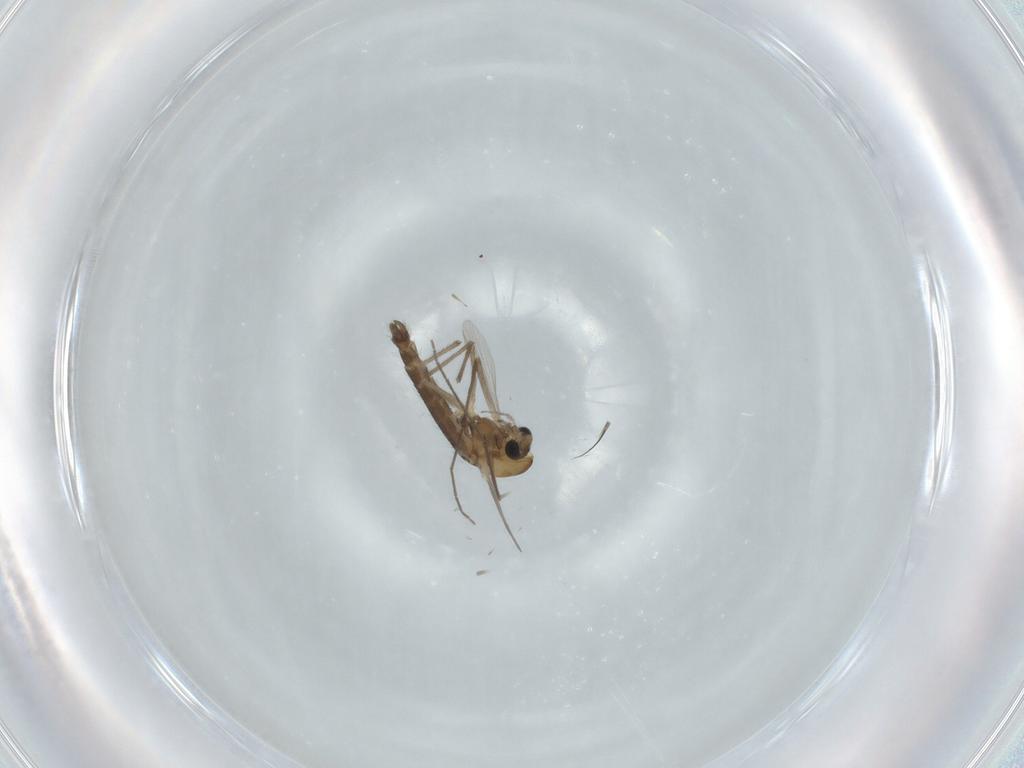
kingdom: Animalia
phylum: Arthropoda
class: Insecta
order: Diptera
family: Chironomidae
